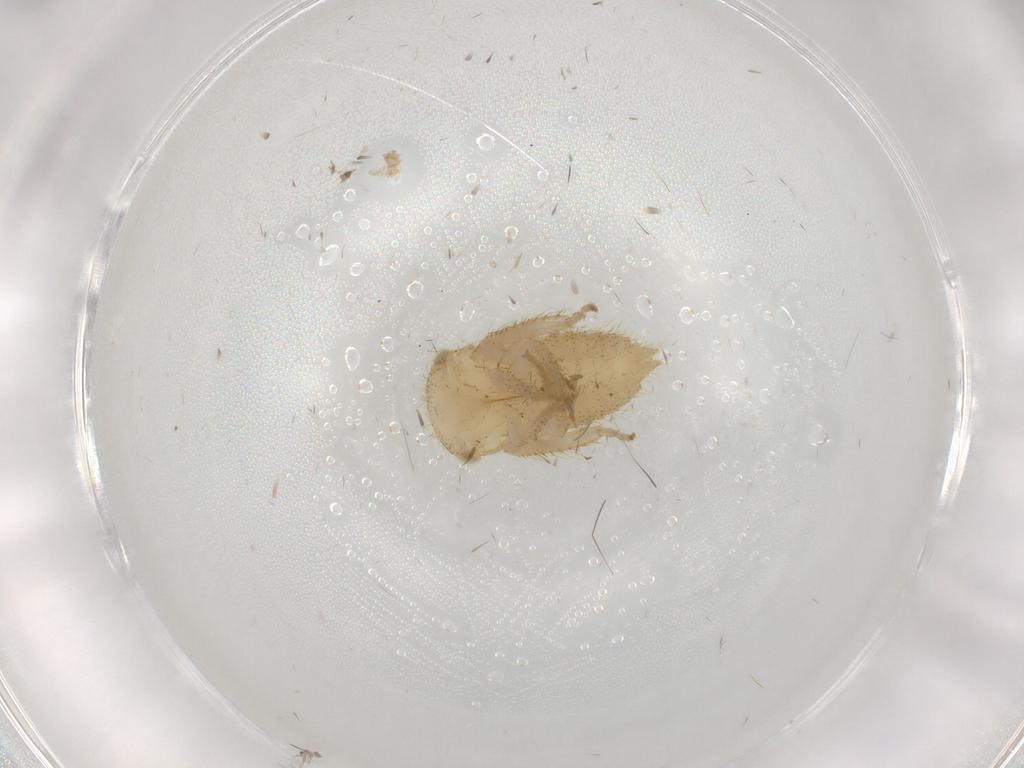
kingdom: Animalia
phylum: Arthropoda
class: Insecta
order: Hemiptera
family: Cicadellidae
